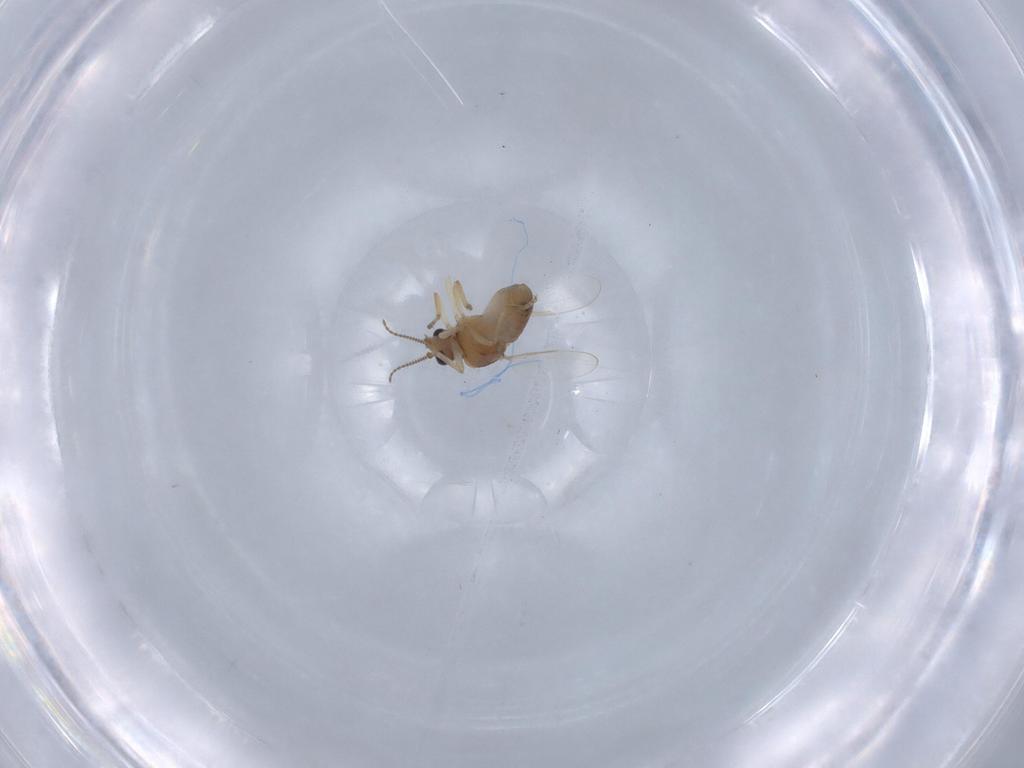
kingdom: Animalia
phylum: Arthropoda
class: Insecta
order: Diptera
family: Ceratopogonidae
